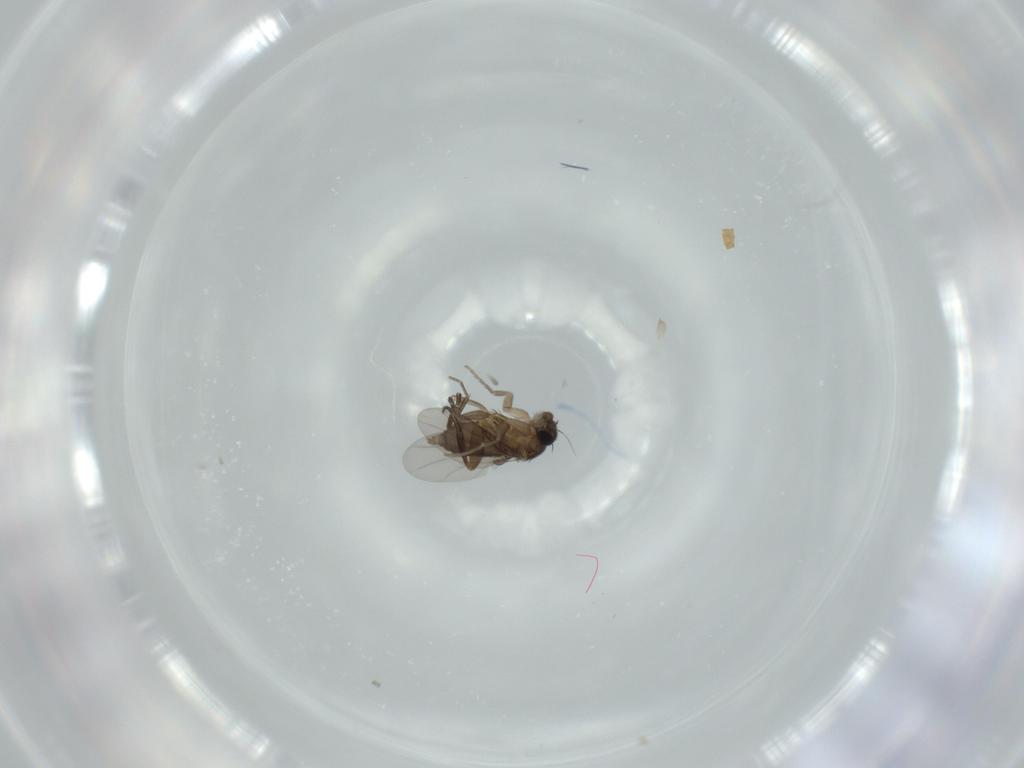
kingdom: Animalia
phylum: Arthropoda
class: Insecta
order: Diptera
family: Phoridae
